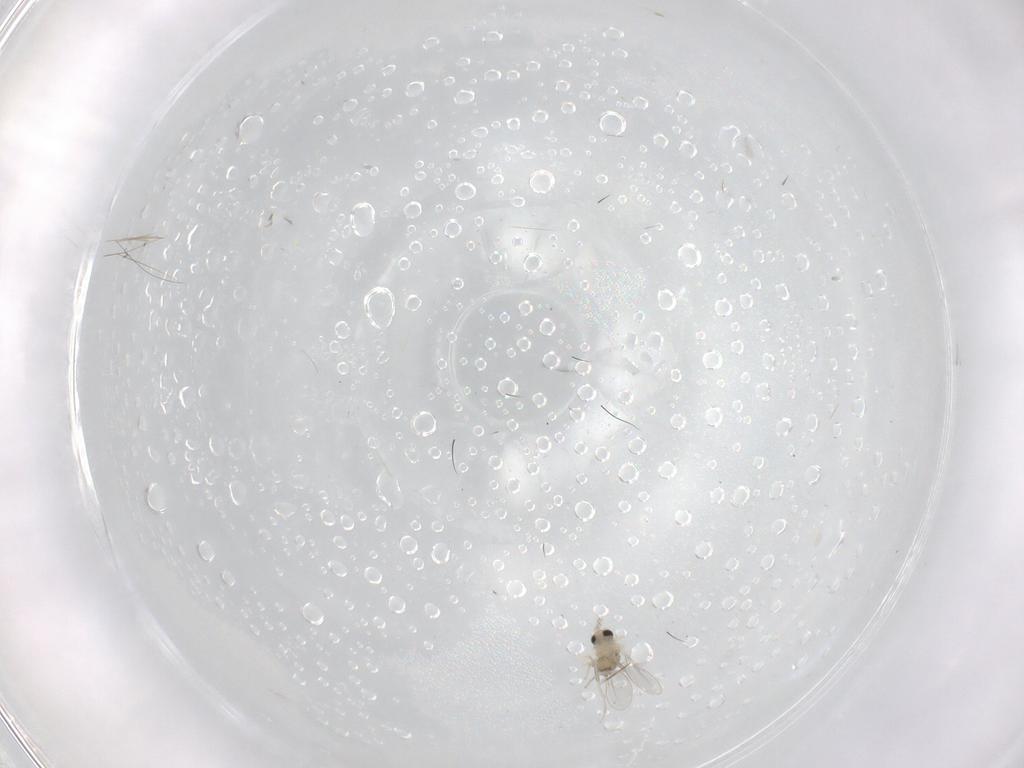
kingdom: Animalia
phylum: Arthropoda
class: Insecta
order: Diptera
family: Cecidomyiidae
